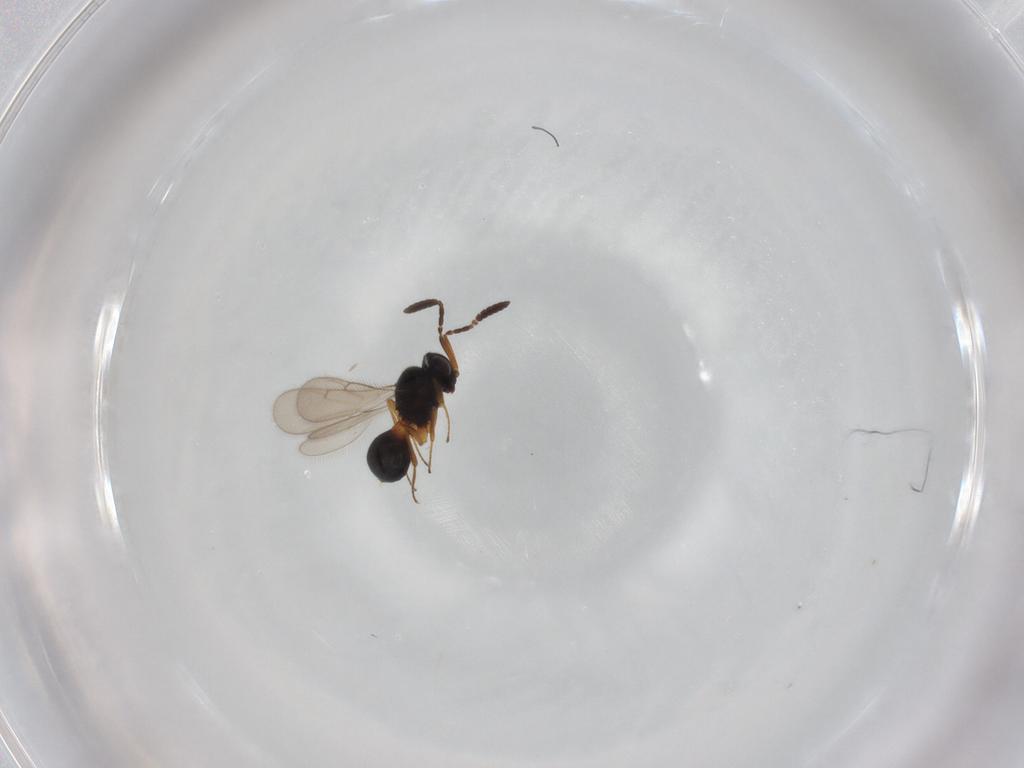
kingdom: Animalia
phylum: Arthropoda
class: Insecta
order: Hymenoptera
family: Scelionidae
